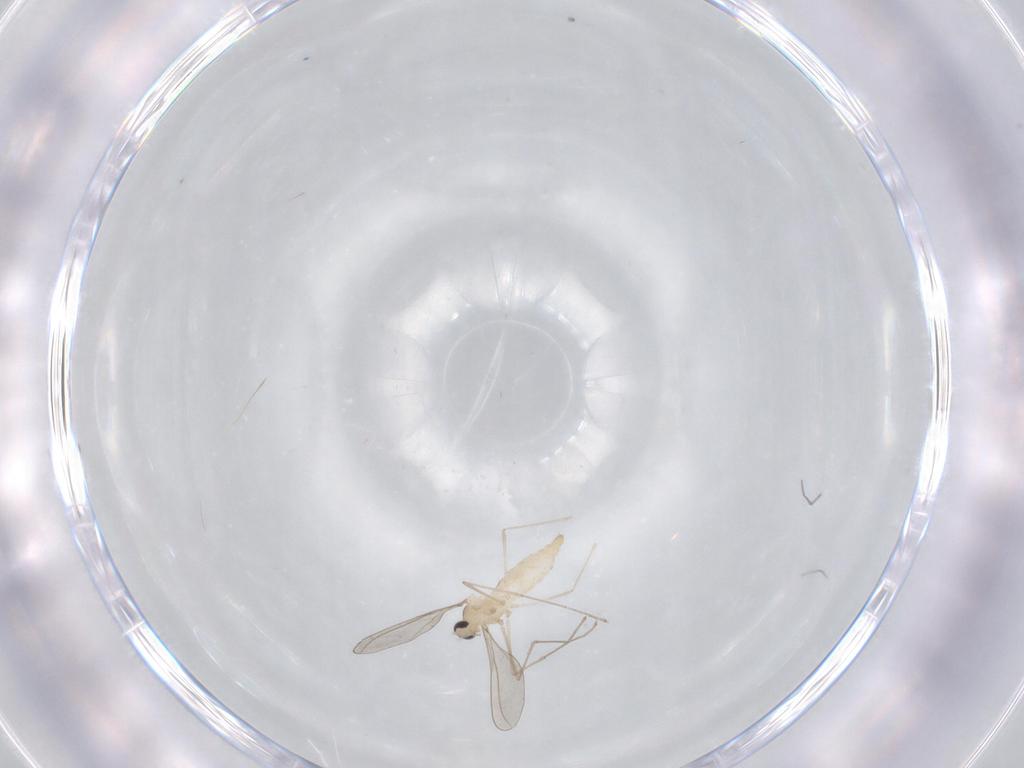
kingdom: Animalia
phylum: Arthropoda
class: Insecta
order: Diptera
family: Cecidomyiidae
